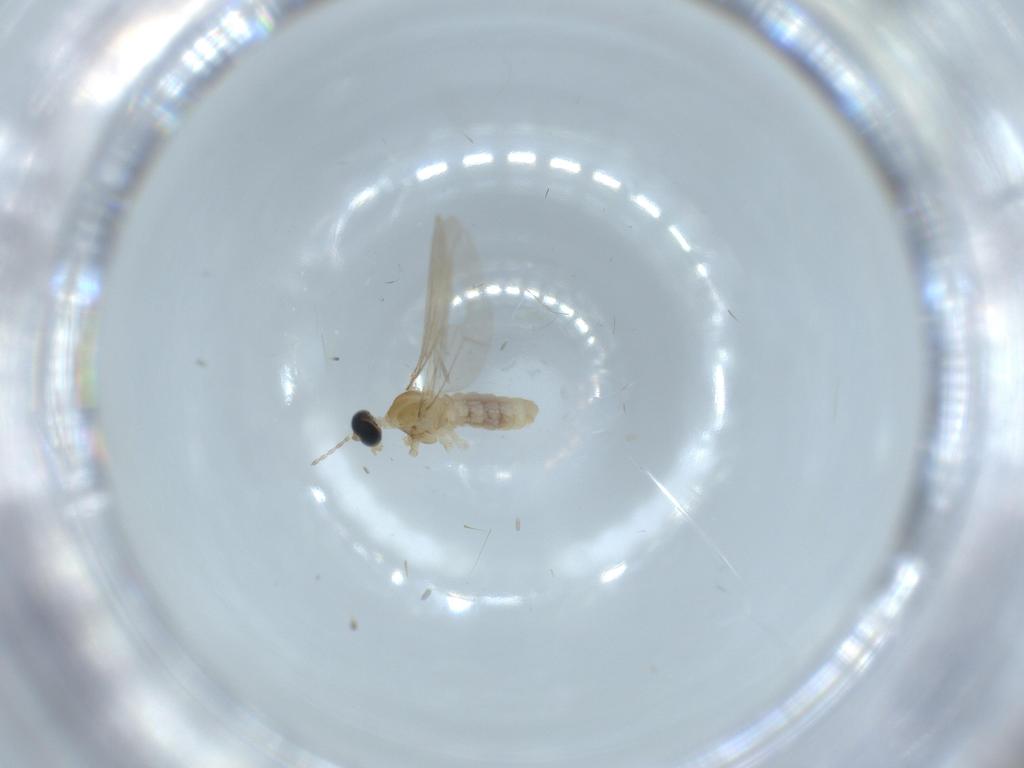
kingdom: Animalia
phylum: Arthropoda
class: Insecta
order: Diptera
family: Cecidomyiidae
